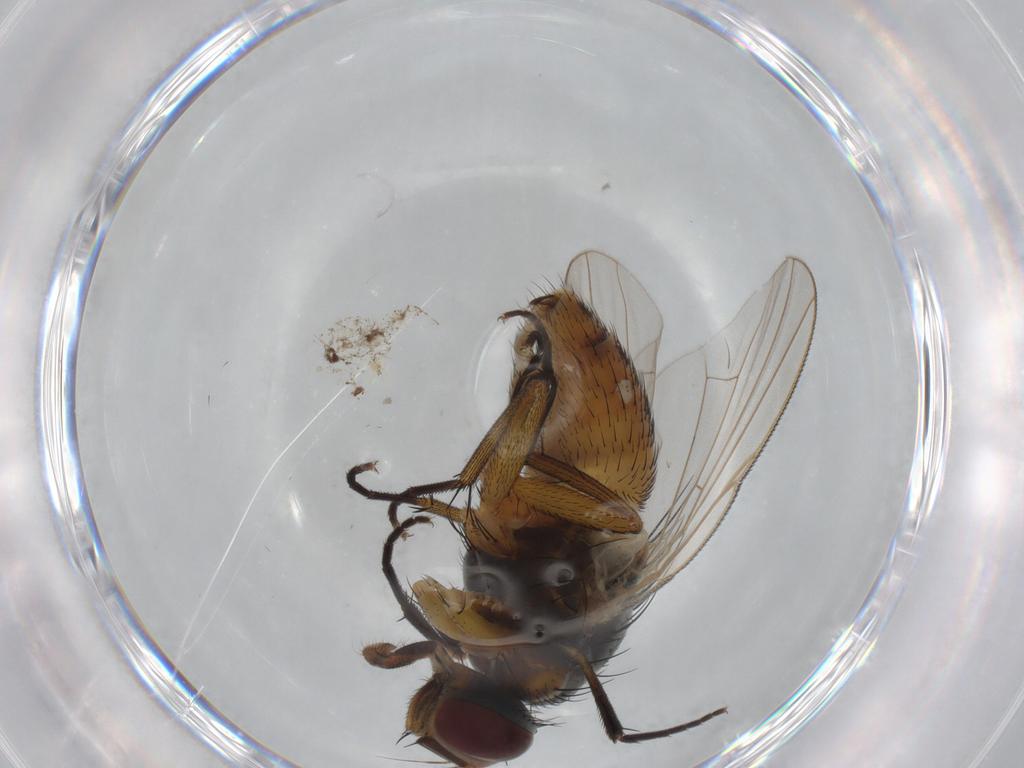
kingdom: Animalia
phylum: Arthropoda
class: Insecta
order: Diptera
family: Muscidae
